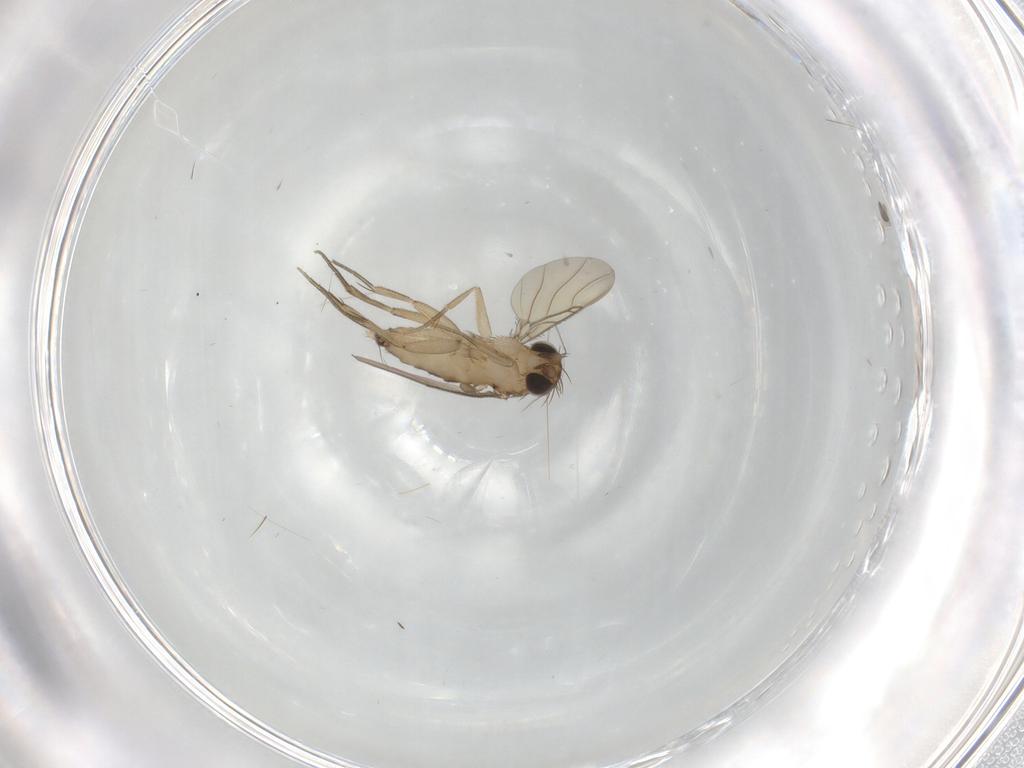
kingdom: Animalia
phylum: Arthropoda
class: Insecta
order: Diptera
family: Phoridae
